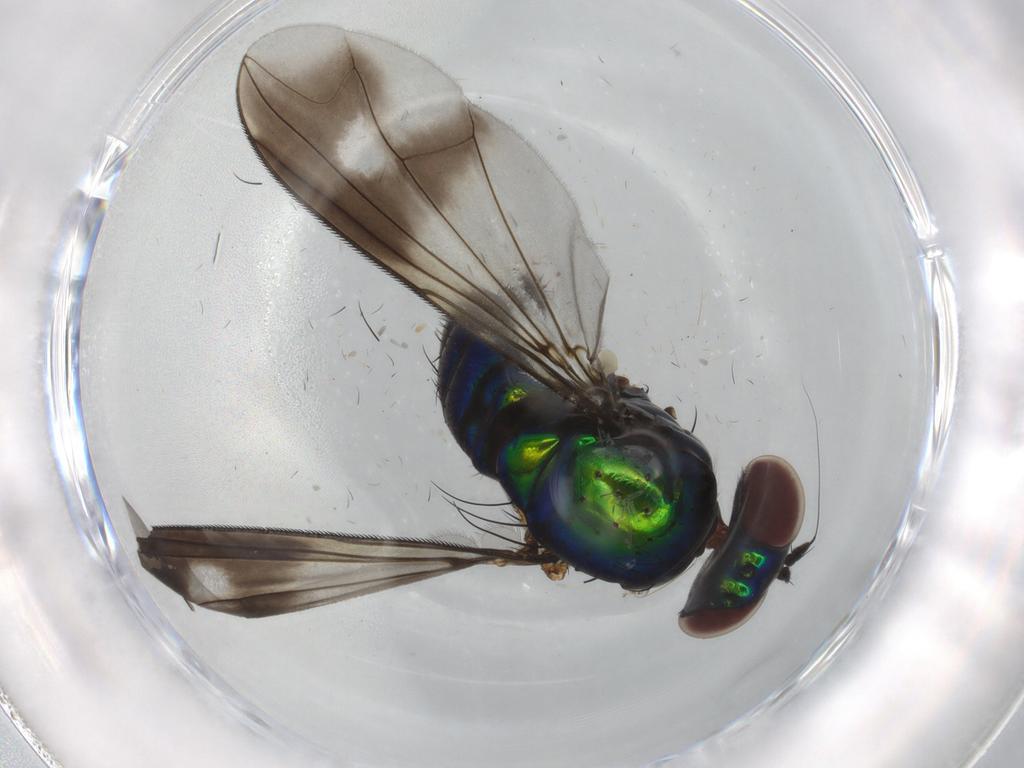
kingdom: Animalia
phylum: Arthropoda
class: Insecta
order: Diptera
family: Dolichopodidae
